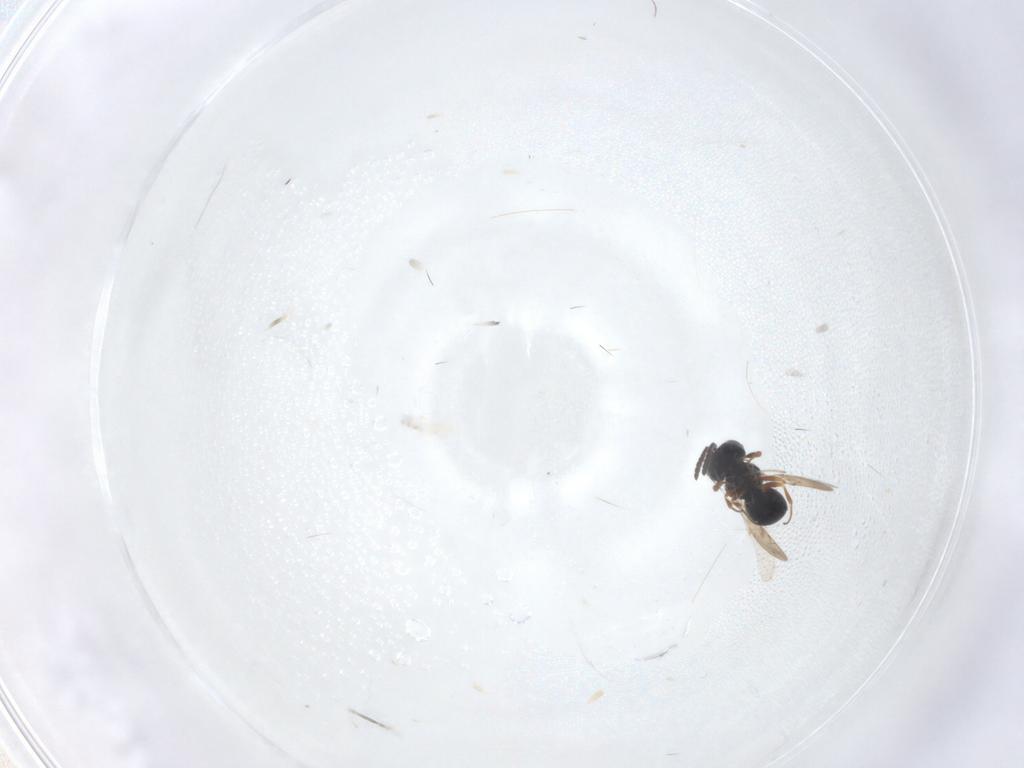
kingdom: Animalia
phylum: Arthropoda
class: Insecta
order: Hymenoptera
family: Scelionidae
